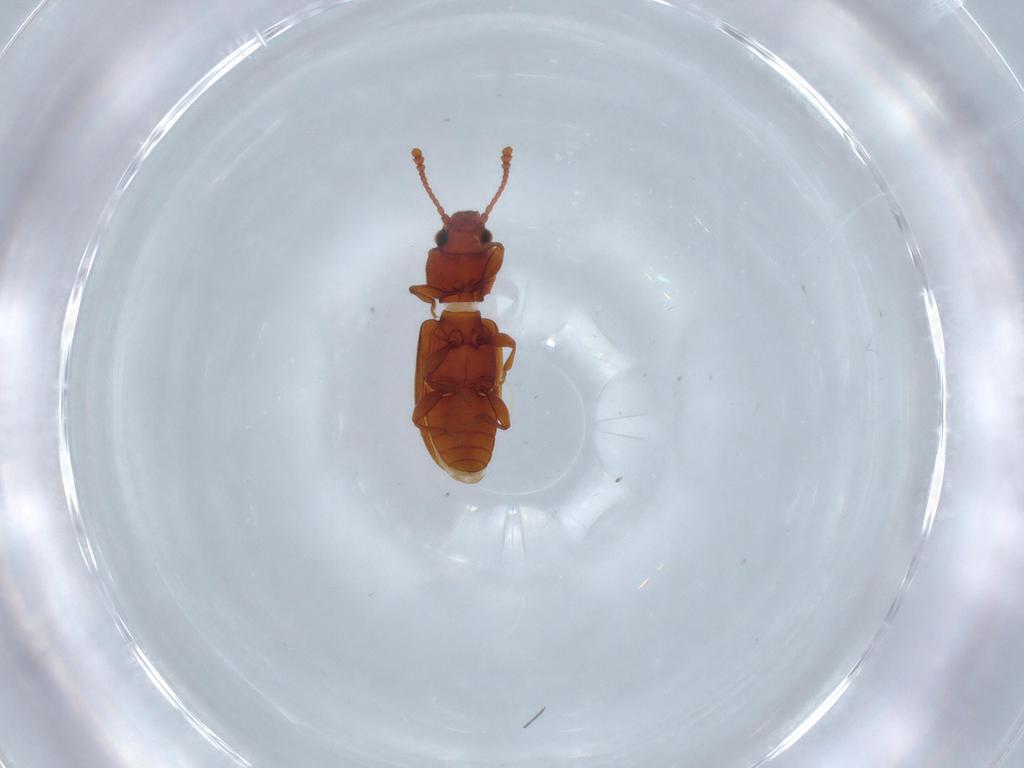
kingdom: Animalia
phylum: Arthropoda
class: Insecta
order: Coleoptera
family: Silvanidae
